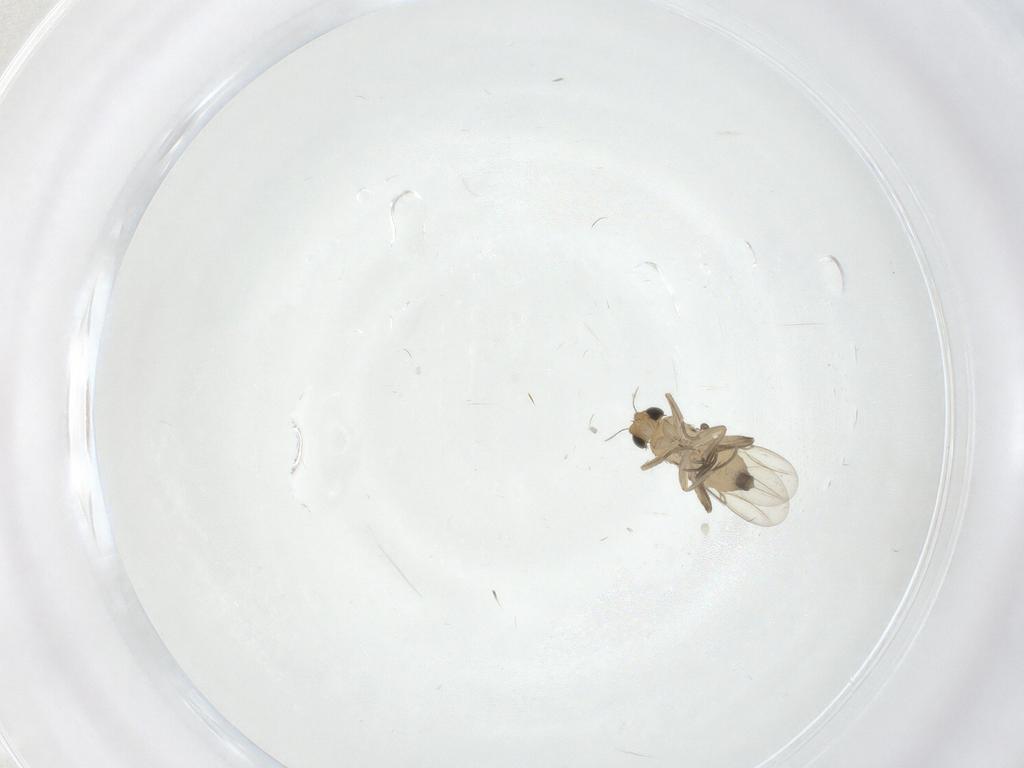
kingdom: Animalia
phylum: Arthropoda
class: Insecta
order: Diptera
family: Phoridae
